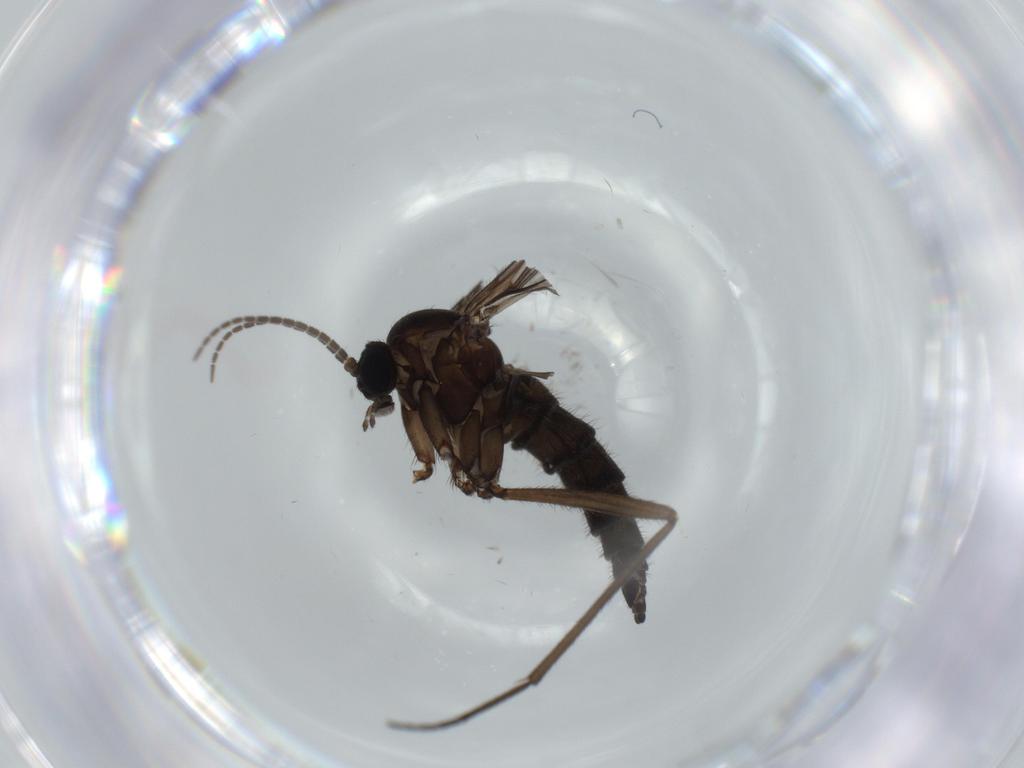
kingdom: Animalia
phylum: Arthropoda
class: Insecta
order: Diptera
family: Sciaridae
